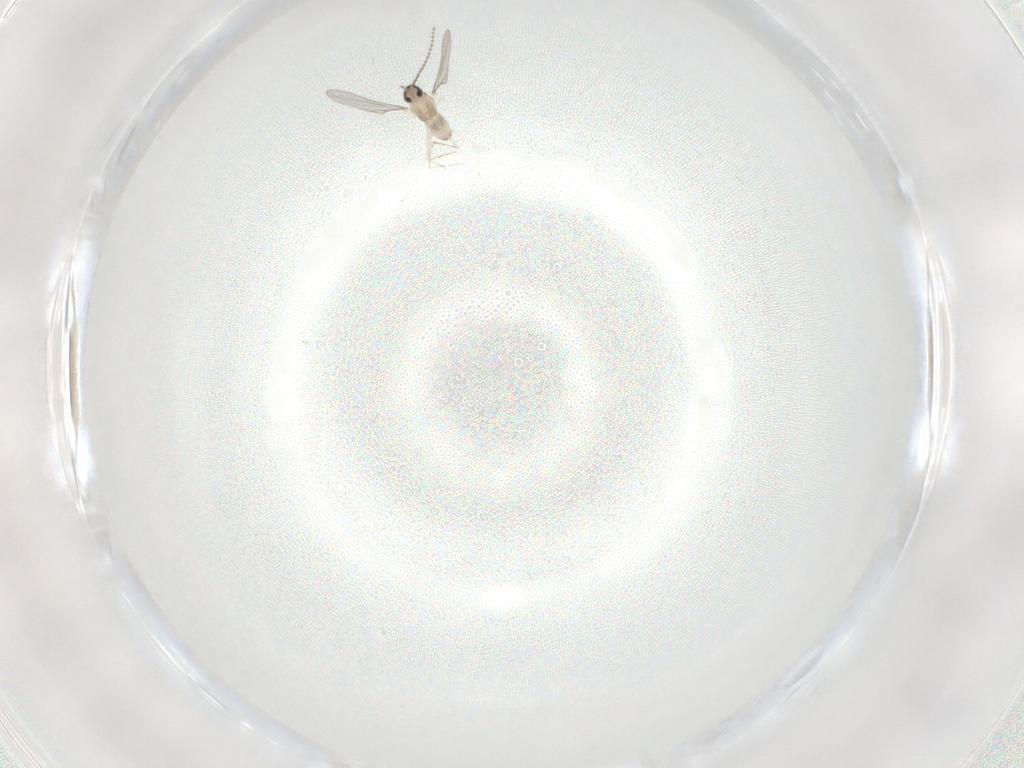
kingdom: Animalia
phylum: Arthropoda
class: Insecta
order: Diptera
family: Cecidomyiidae
